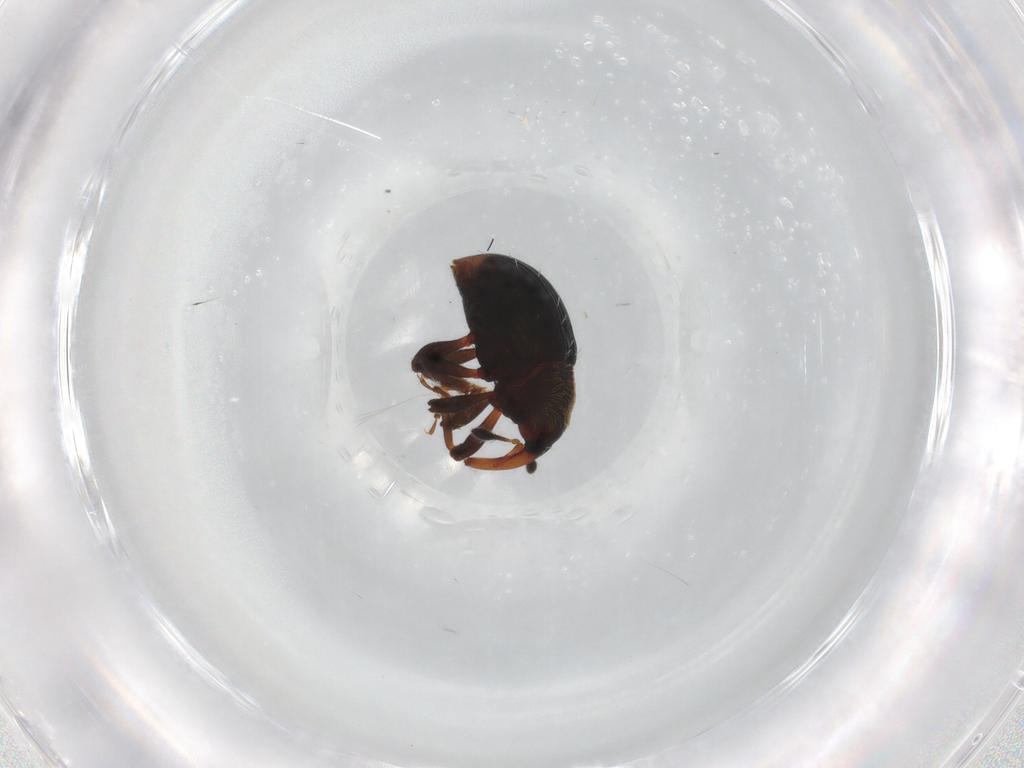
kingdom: Animalia
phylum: Arthropoda
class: Insecta
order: Coleoptera
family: Curculionidae
